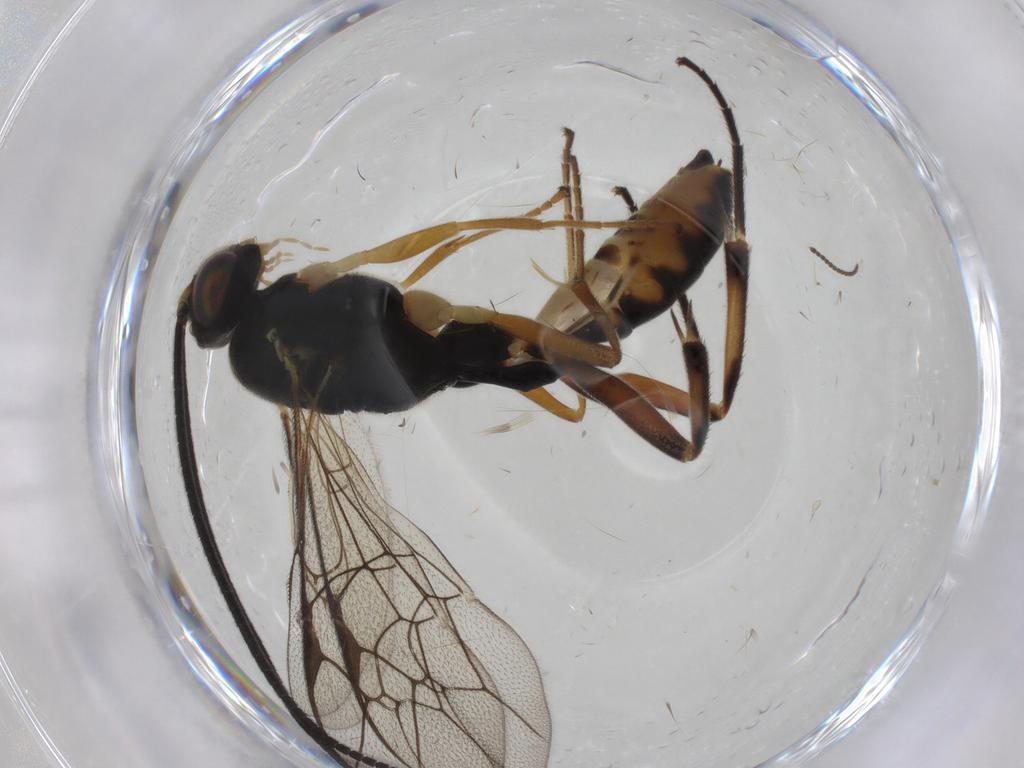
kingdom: Animalia
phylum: Arthropoda
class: Insecta
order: Hymenoptera
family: Ichneumonidae
